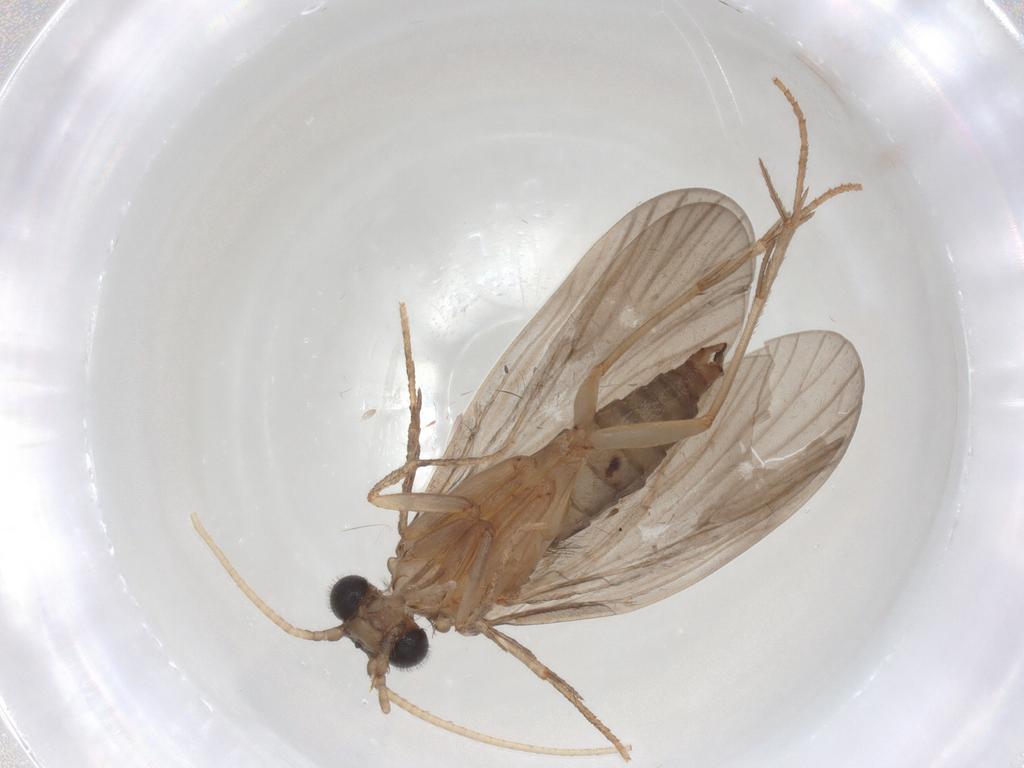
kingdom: Animalia
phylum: Arthropoda
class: Insecta
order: Trichoptera
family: Philopotamidae
